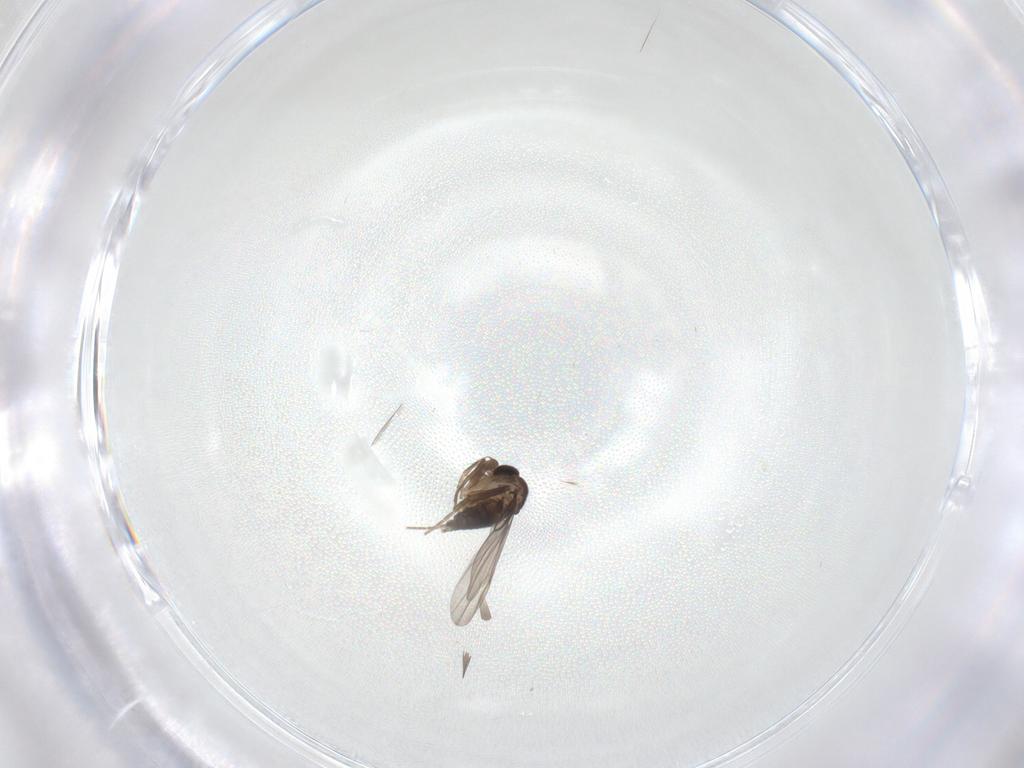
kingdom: Animalia
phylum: Arthropoda
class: Insecta
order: Diptera
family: Phoridae
